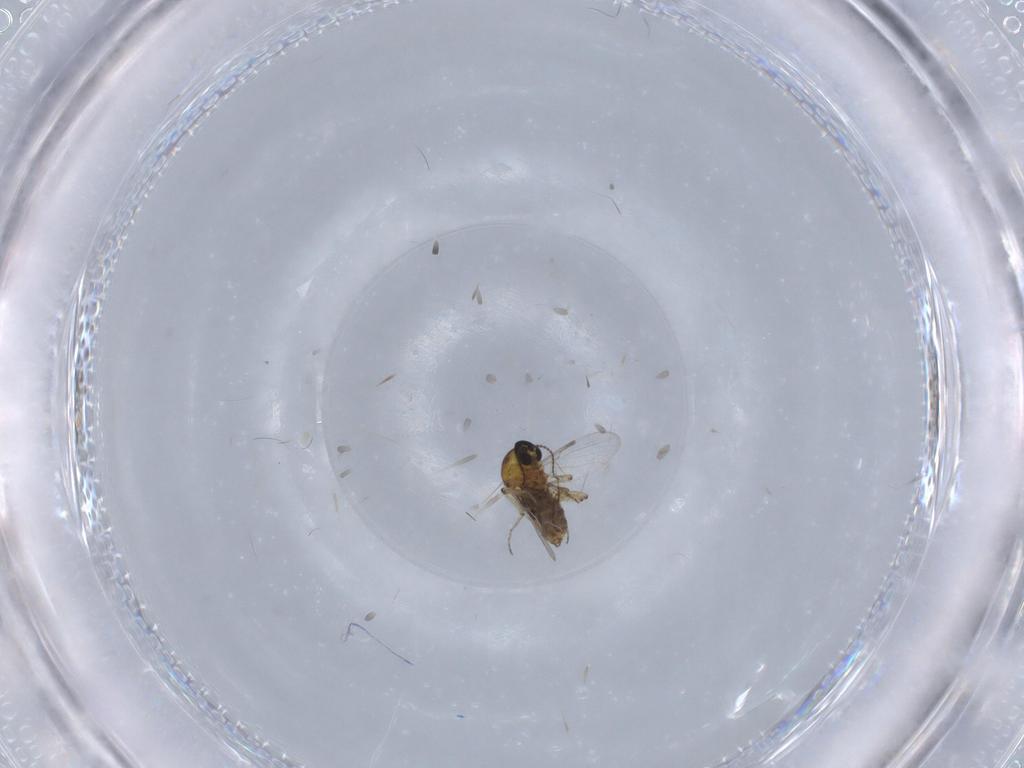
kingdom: Animalia
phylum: Arthropoda
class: Insecta
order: Diptera
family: Ceratopogonidae
